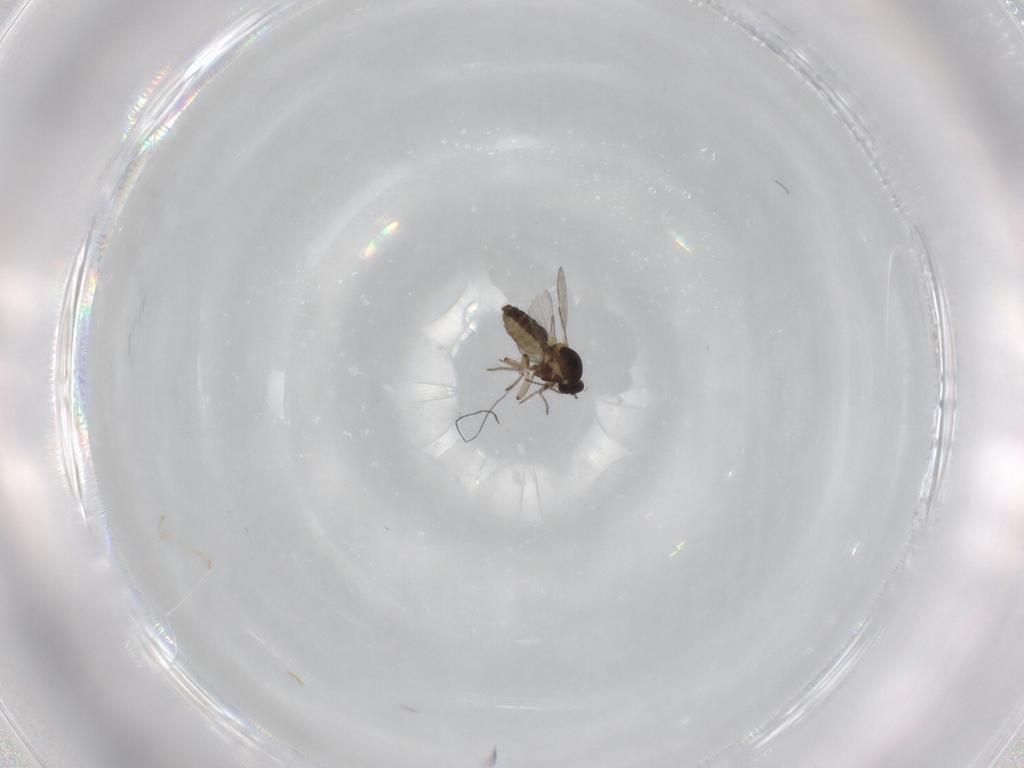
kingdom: Animalia
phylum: Arthropoda
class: Insecta
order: Diptera
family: Ceratopogonidae
